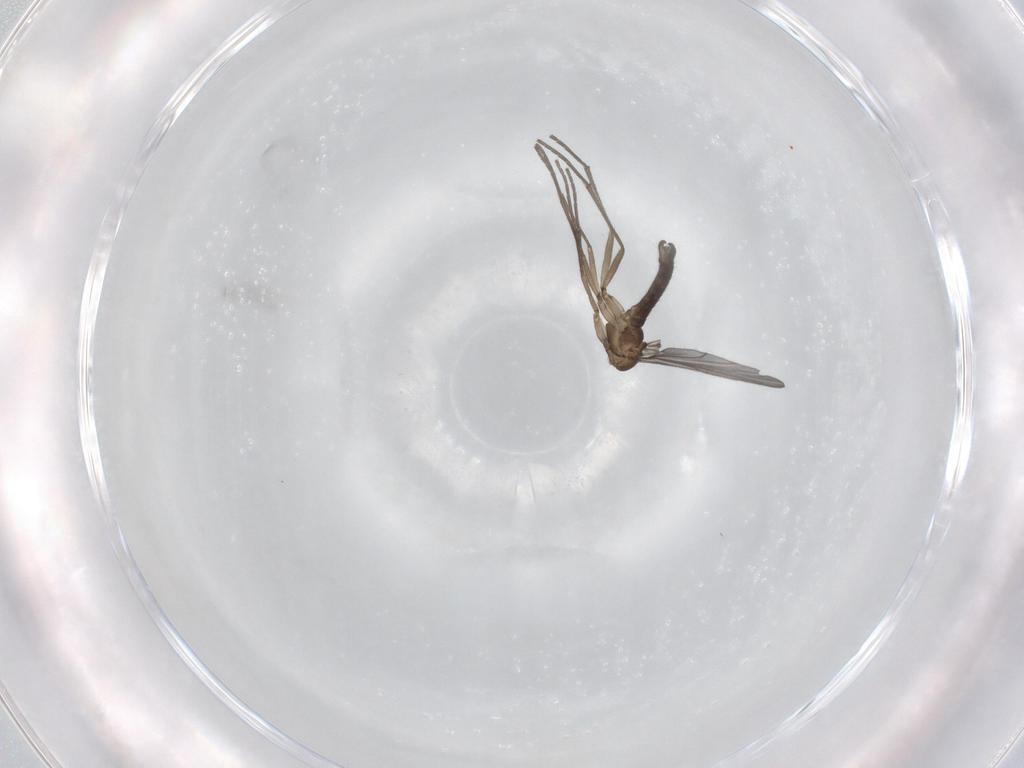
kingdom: Animalia
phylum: Arthropoda
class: Insecta
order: Diptera
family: Sciaridae
